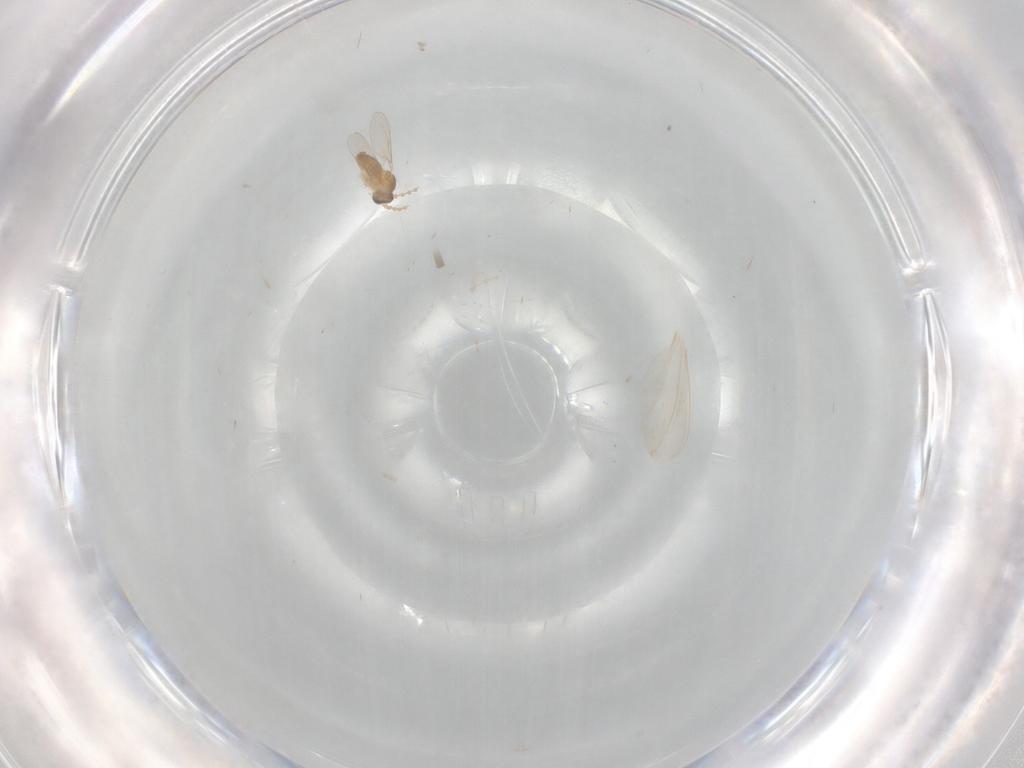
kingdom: Animalia
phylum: Arthropoda
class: Insecta
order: Diptera
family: Cecidomyiidae
